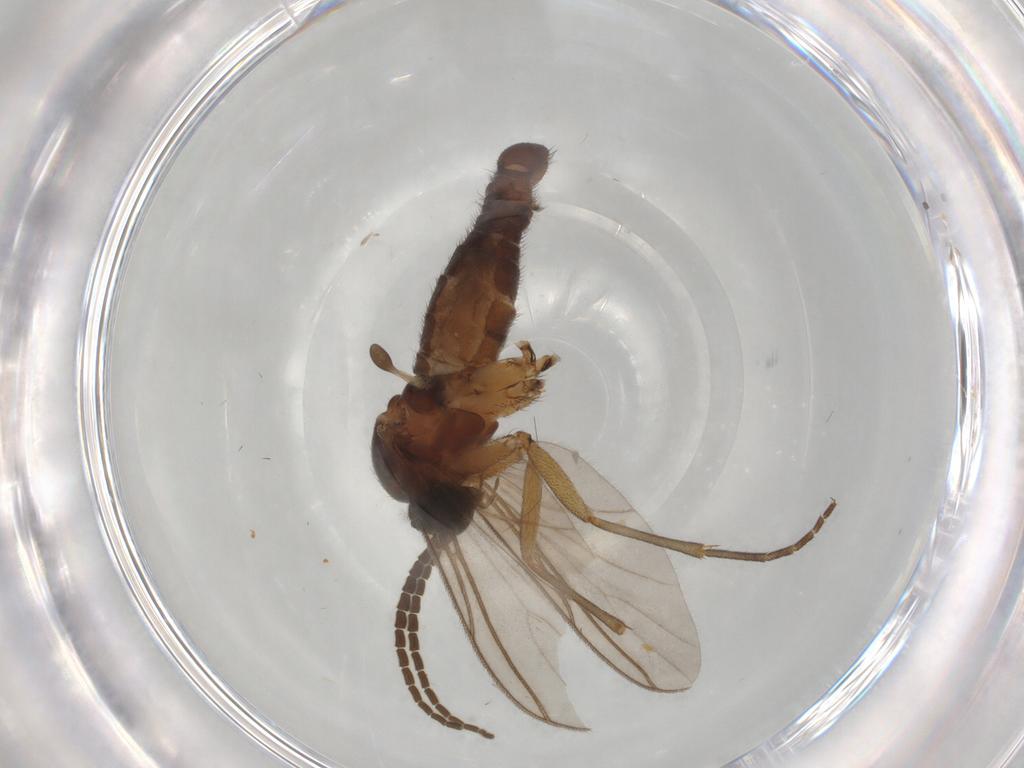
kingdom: Animalia
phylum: Arthropoda
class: Insecta
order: Diptera
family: Sciaridae
